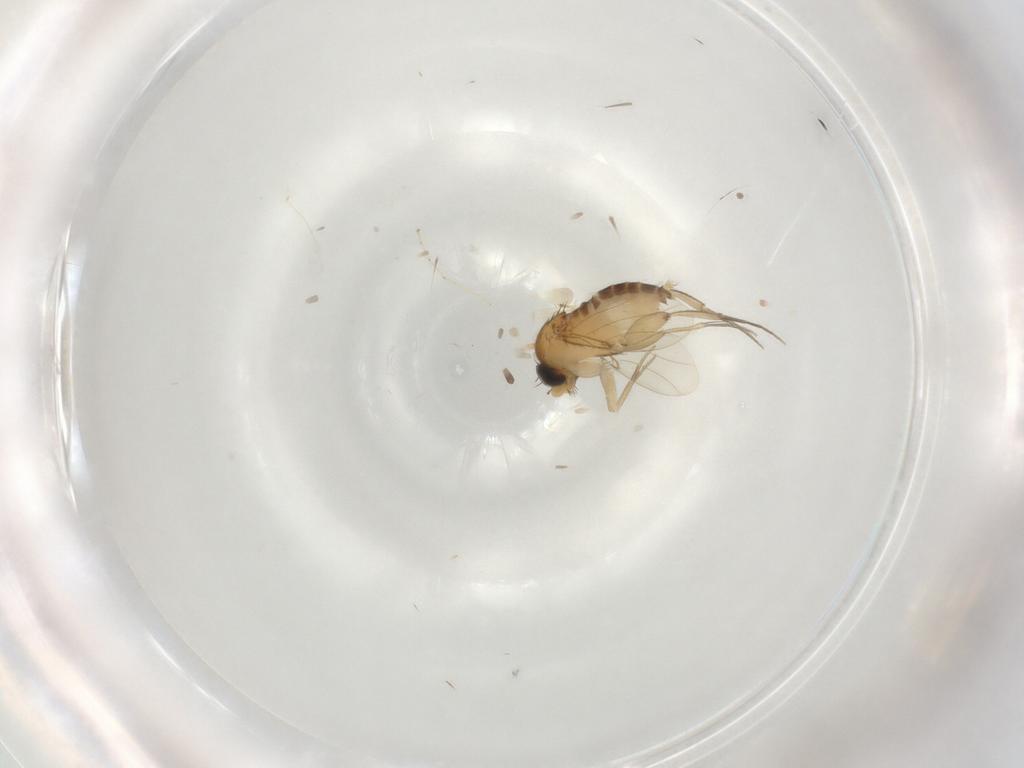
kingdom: Animalia
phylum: Arthropoda
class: Insecta
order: Diptera
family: Phoridae
